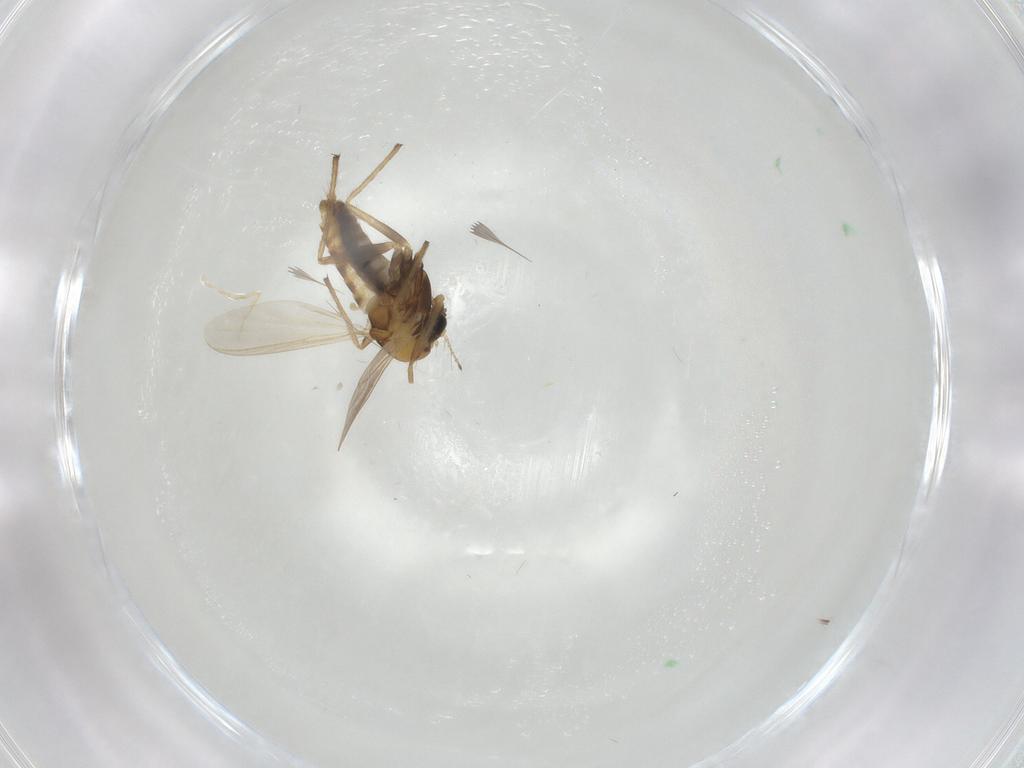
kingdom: Animalia
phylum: Arthropoda
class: Insecta
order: Diptera
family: Chironomidae
